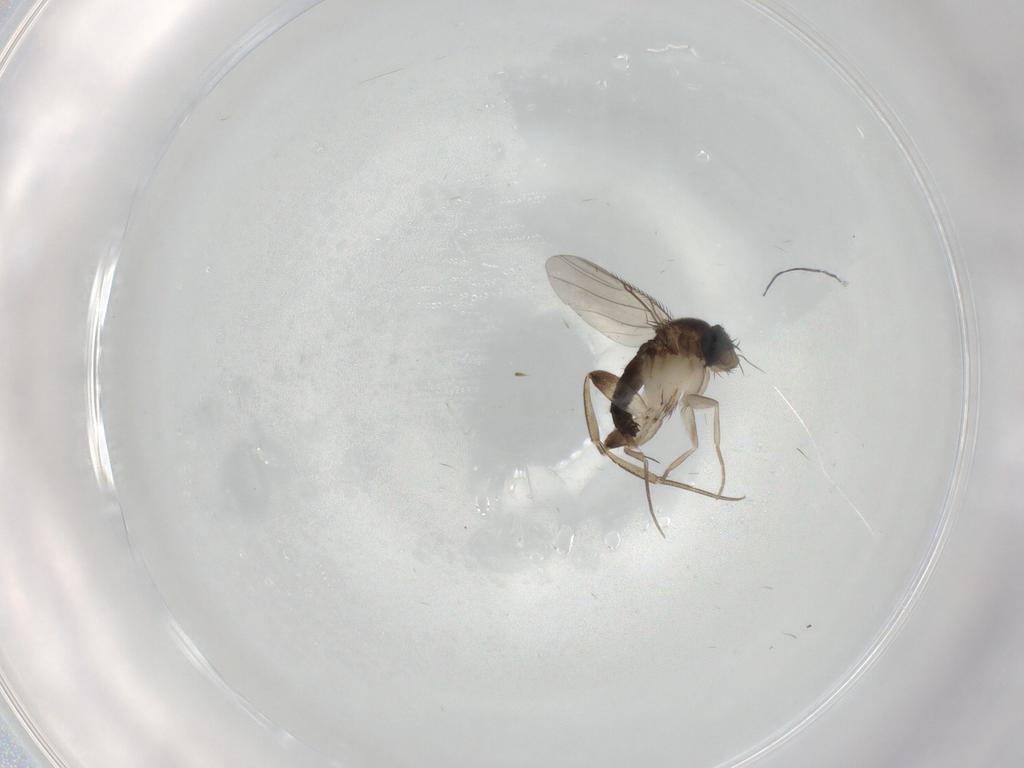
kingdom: Animalia
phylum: Arthropoda
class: Insecta
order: Diptera
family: Phoridae
